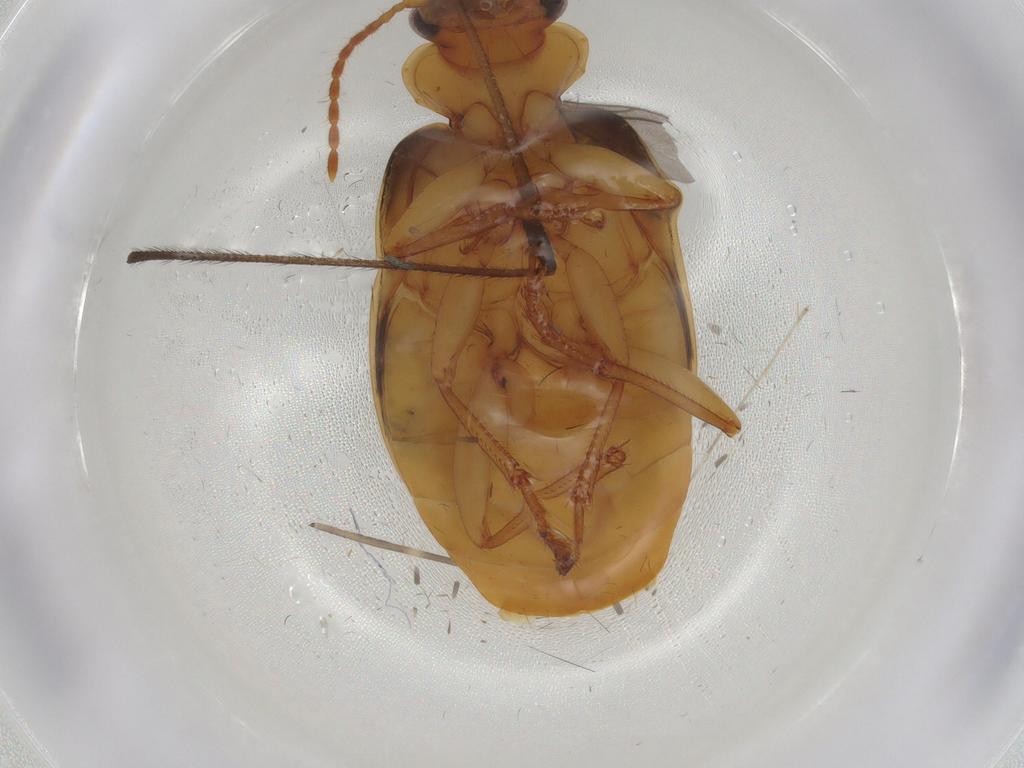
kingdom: Animalia
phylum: Arthropoda
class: Insecta
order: Coleoptera
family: Carabidae
